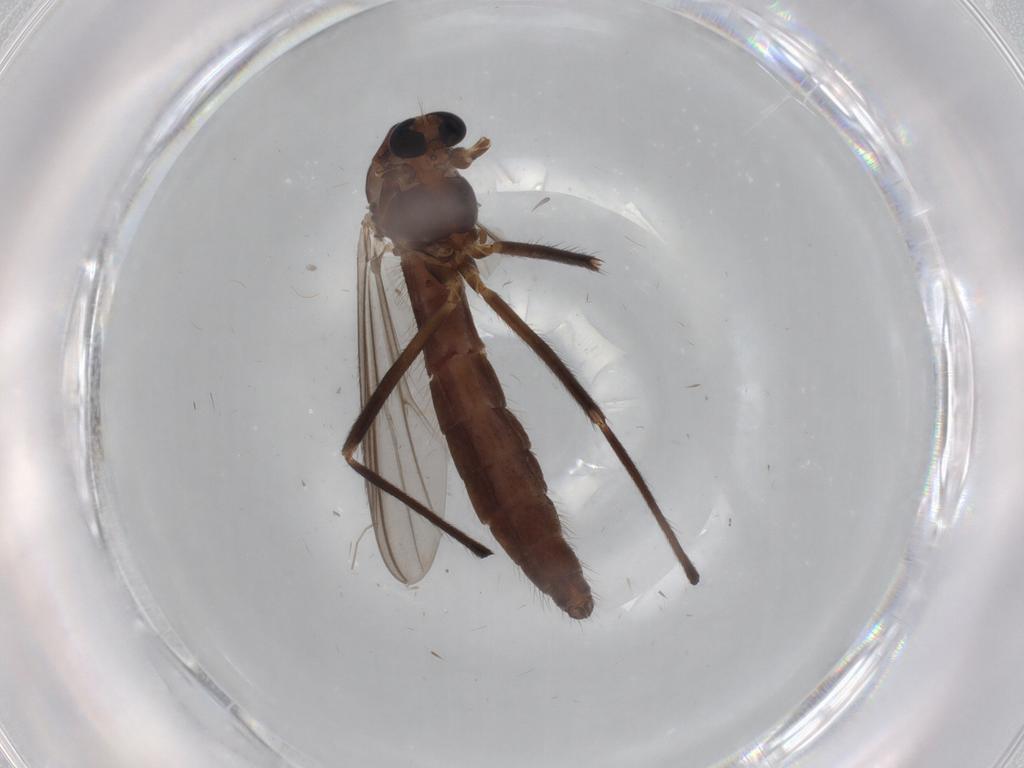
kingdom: Animalia
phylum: Arthropoda
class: Insecta
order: Diptera
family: Chironomidae
